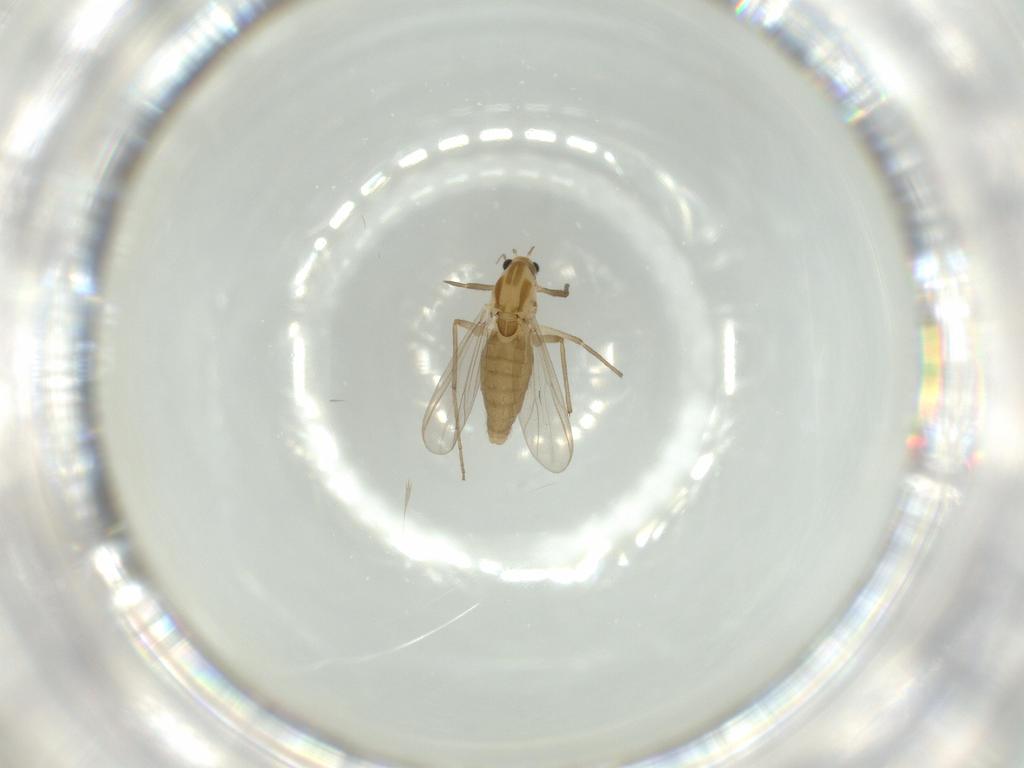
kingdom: Animalia
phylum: Arthropoda
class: Insecta
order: Diptera
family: Chironomidae
